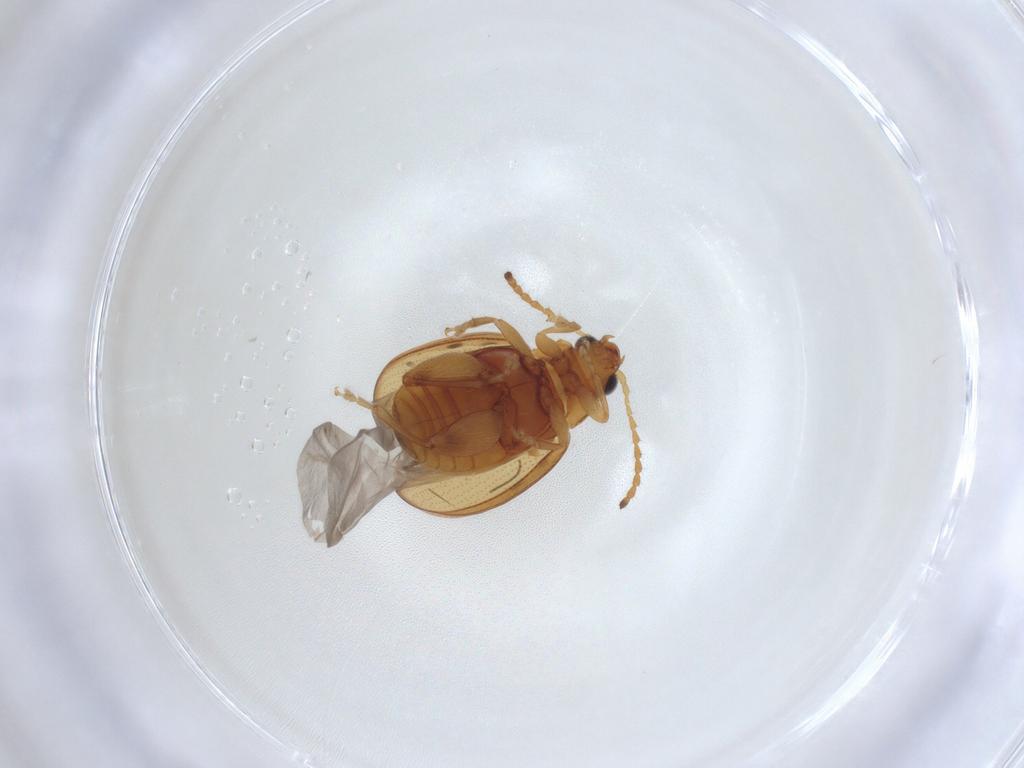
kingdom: Animalia
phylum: Arthropoda
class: Insecta
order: Coleoptera
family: Chrysomelidae
